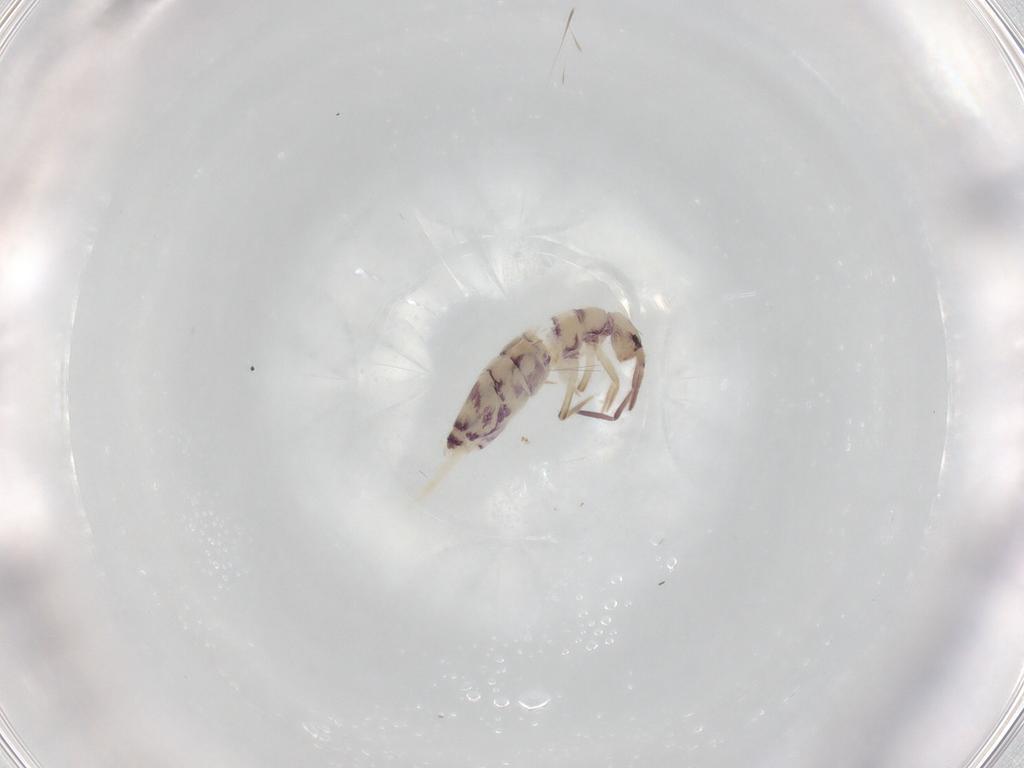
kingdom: Animalia
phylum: Arthropoda
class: Collembola
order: Entomobryomorpha
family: Entomobryidae
